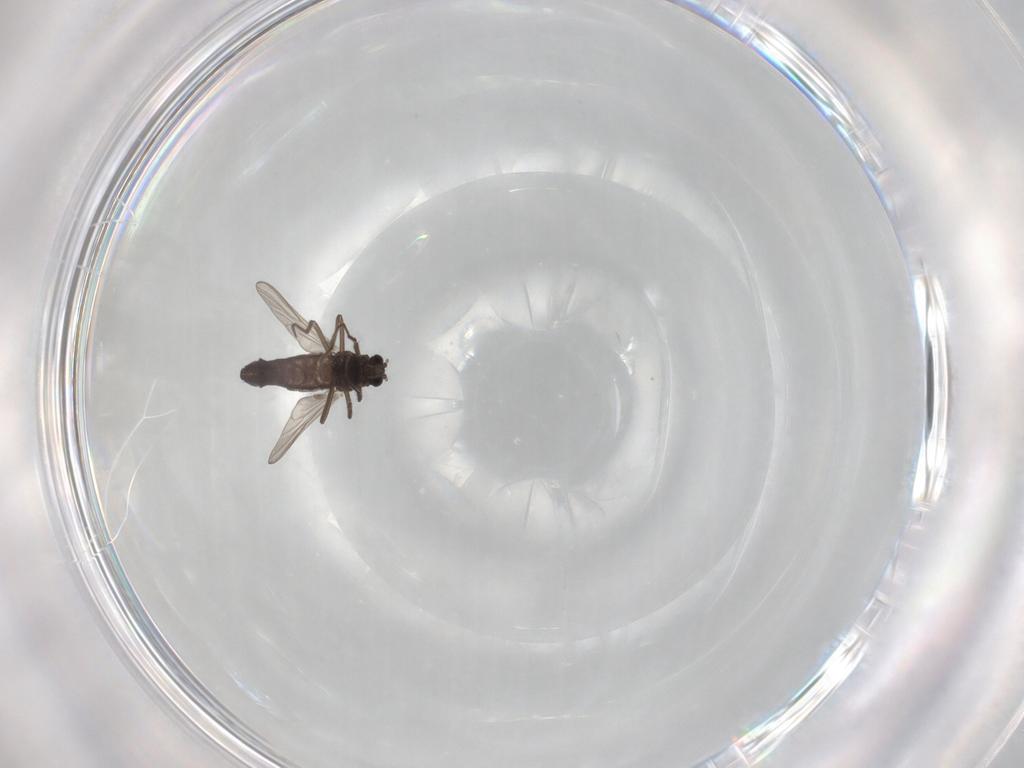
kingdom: Animalia
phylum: Arthropoda
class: Insecta
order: Diptera
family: Chironomidae
